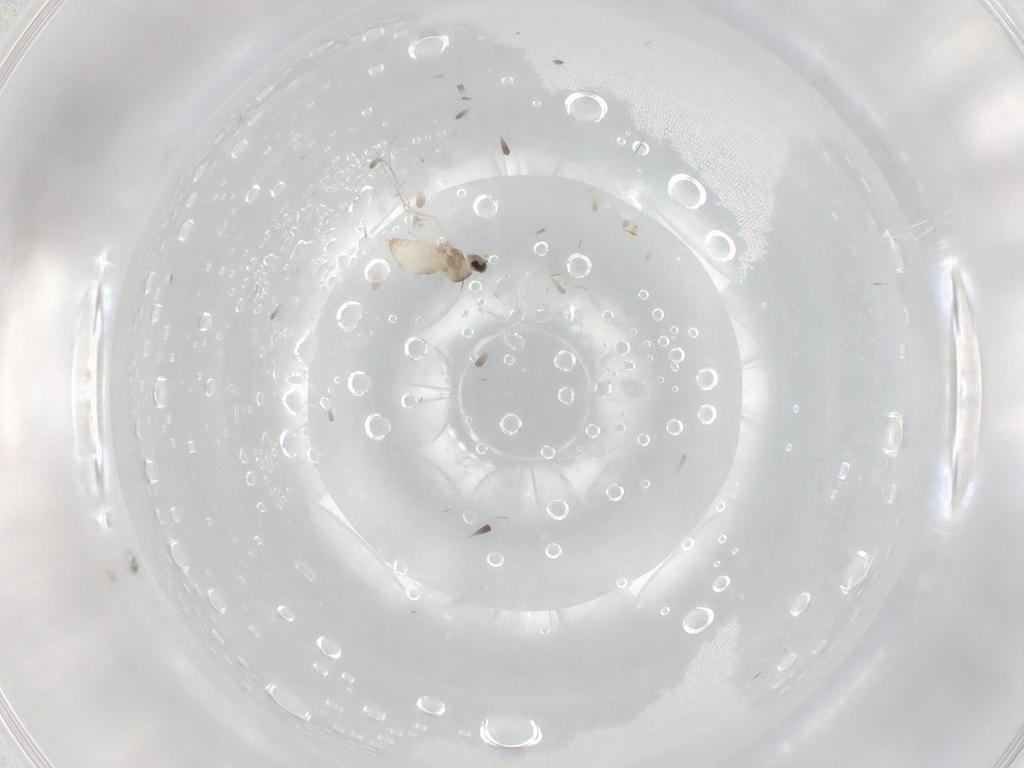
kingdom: Animalia
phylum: Arthropoda
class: Insecta
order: Diptera
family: Cecidomyiidae
